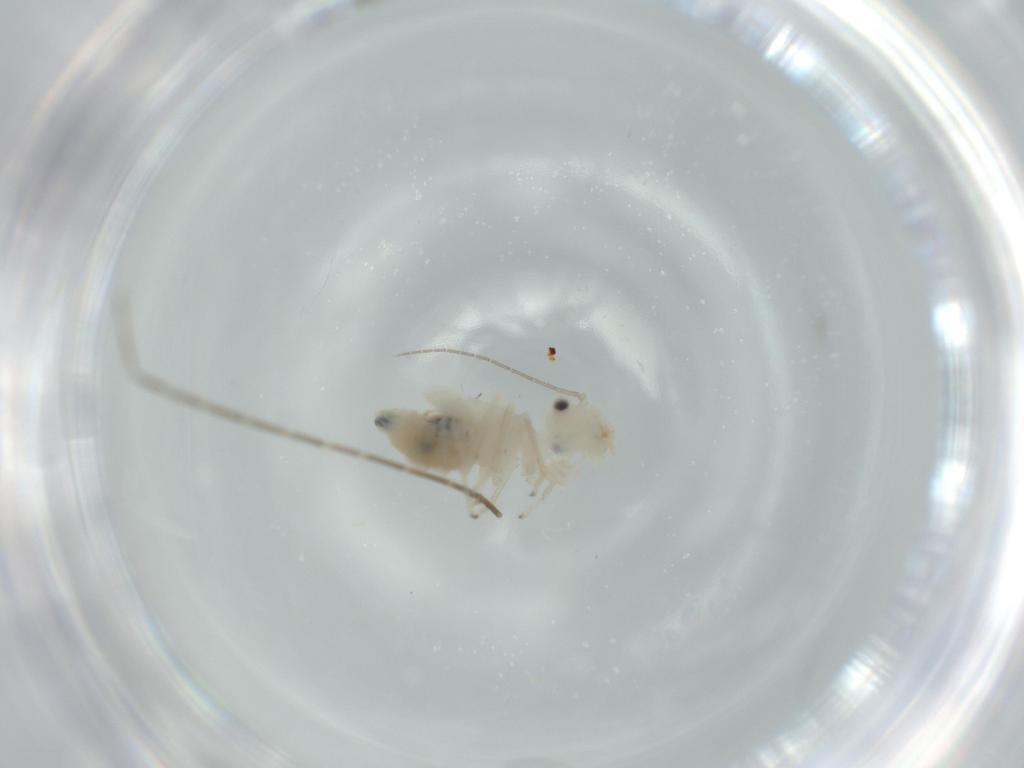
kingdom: Animalia
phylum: Arthropoda
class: Insecta
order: Psocodea
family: Caeciliusidae
